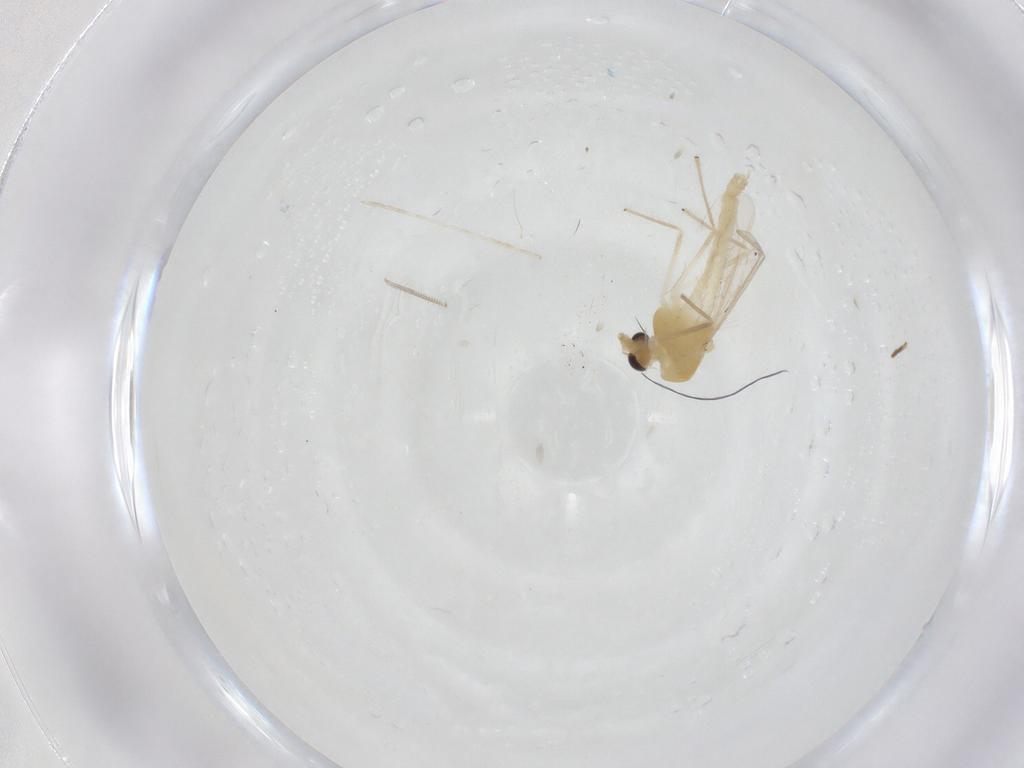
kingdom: Animalia
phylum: Arthropoda
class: Insecta
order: Diptera
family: Chironomidae
